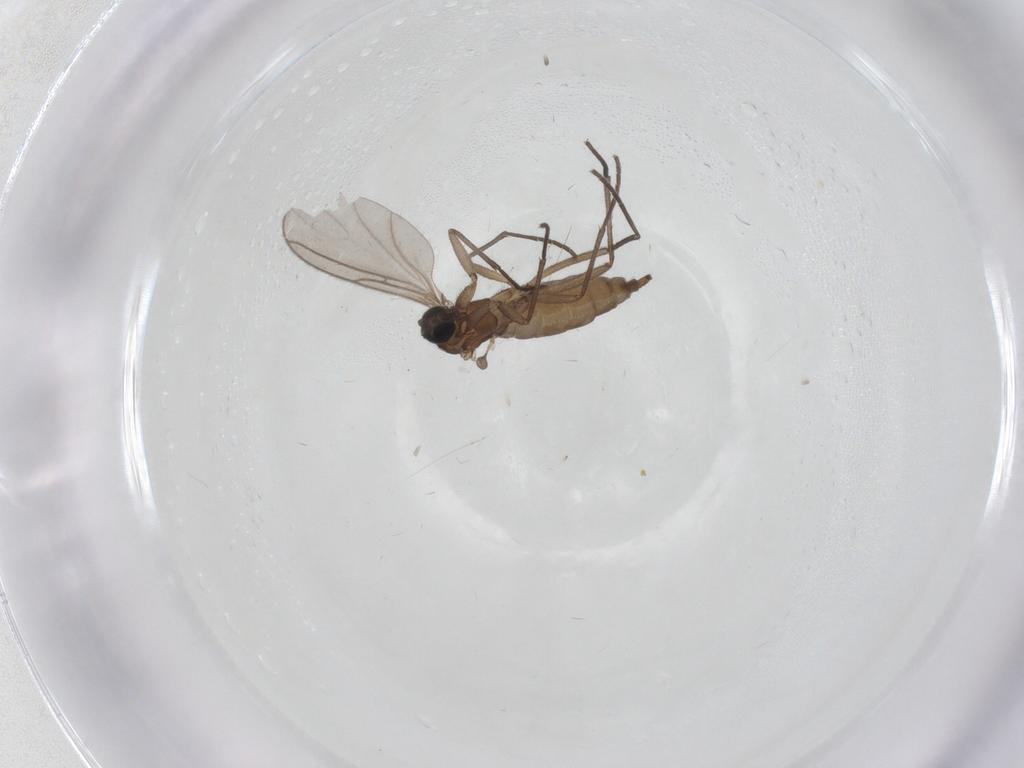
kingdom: Animalia
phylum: Arthropoda
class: Insecta
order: Diptera
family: Sciaridae
